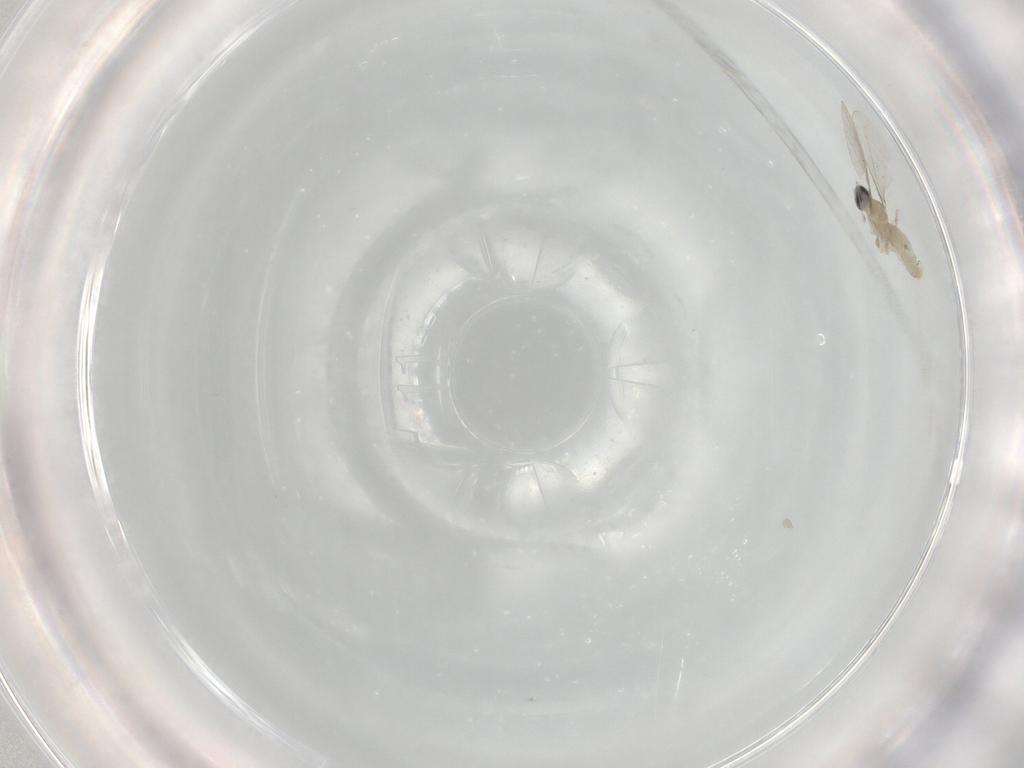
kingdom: Animalia
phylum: Arthropoda
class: Insecta
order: Diptera
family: Cecidomyiidae
